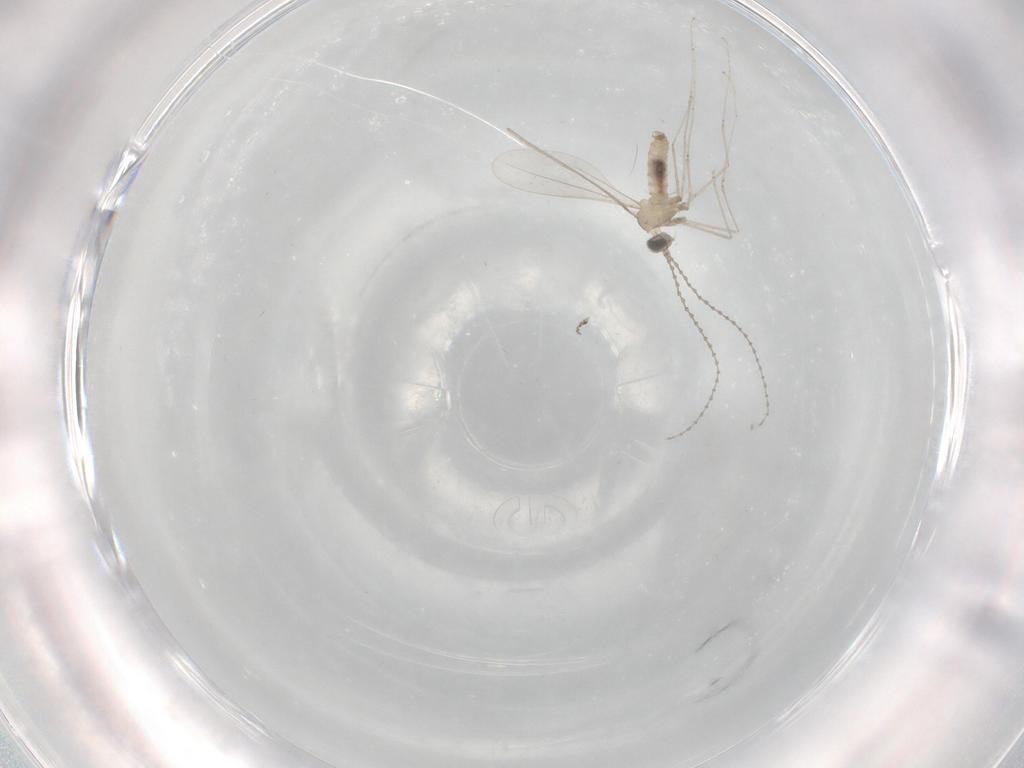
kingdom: Animalia
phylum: Arthropoda
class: Insecta
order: Diptera
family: Cecidomyiidae
